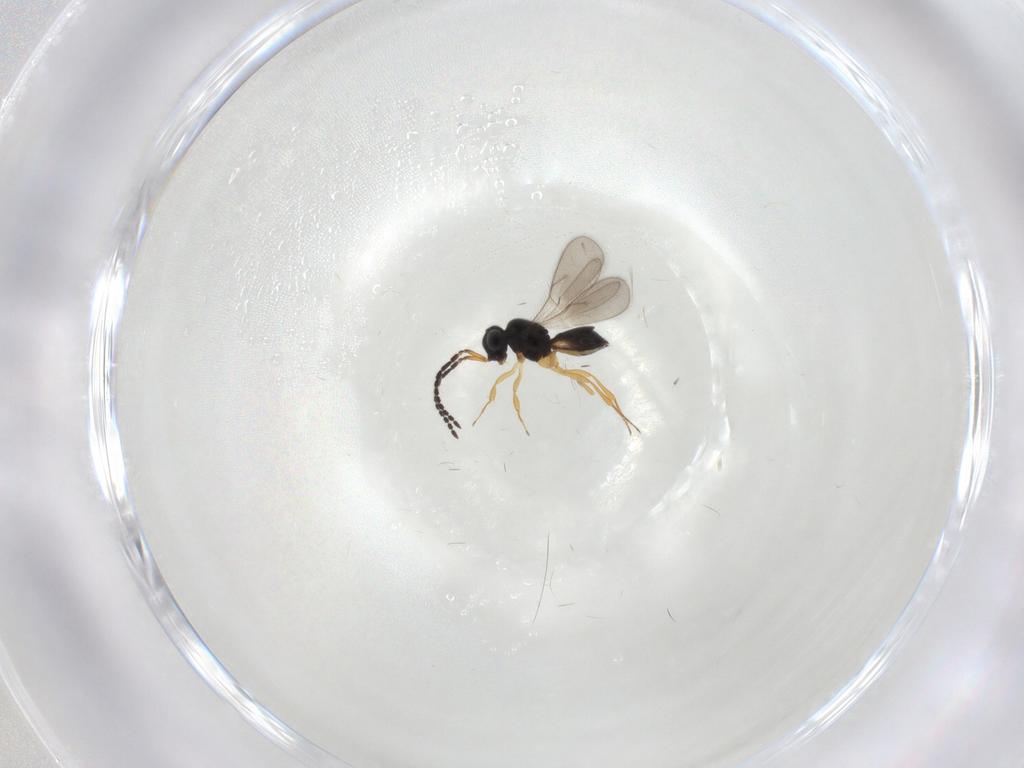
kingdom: Animalia
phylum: Arthropoda
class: Insecta
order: Hymenoptera
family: Scelionidae
